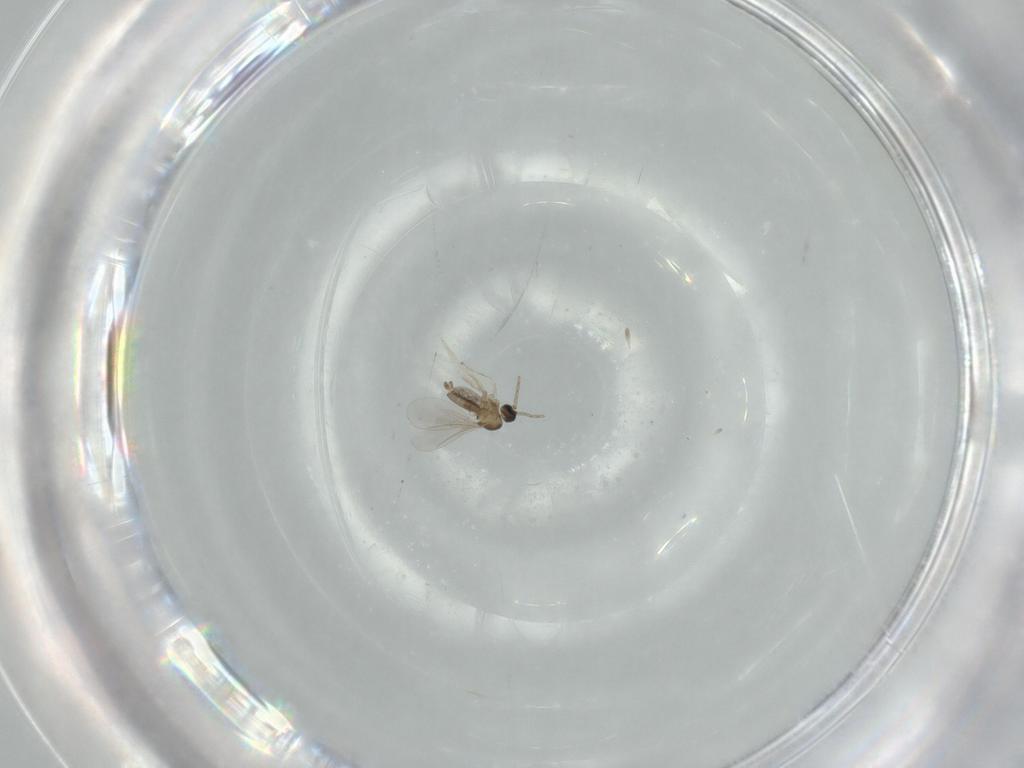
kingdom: Animalia
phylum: Arthropoda
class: Insecta
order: Diptera
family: Cecidomyiidae
